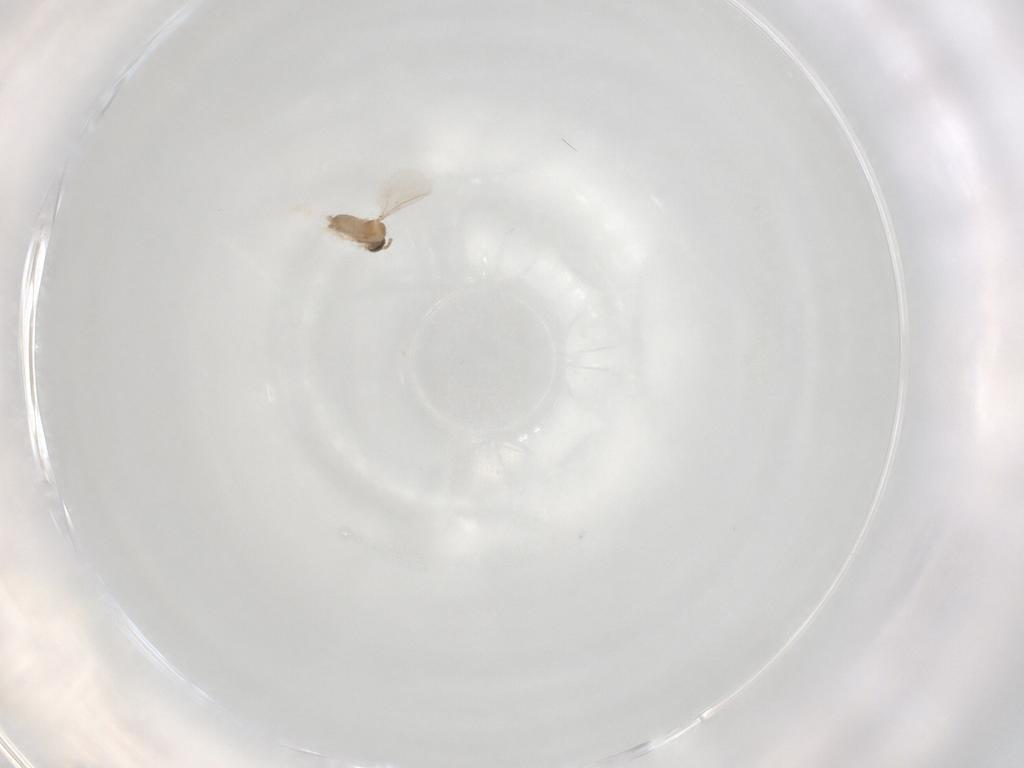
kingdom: Animalia
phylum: Arthropoda
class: Insecta
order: Diptera
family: Cecidomyiidae
